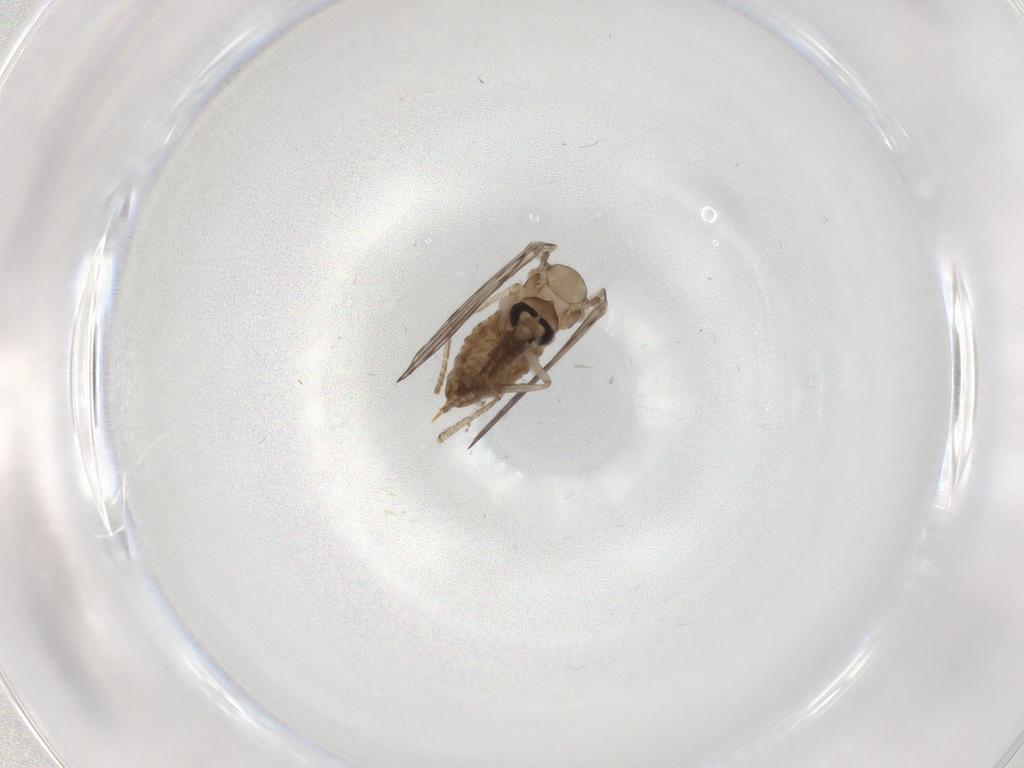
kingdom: Animalia
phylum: Arthropoda
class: Insecta
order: Diptera
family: Psychodidae
